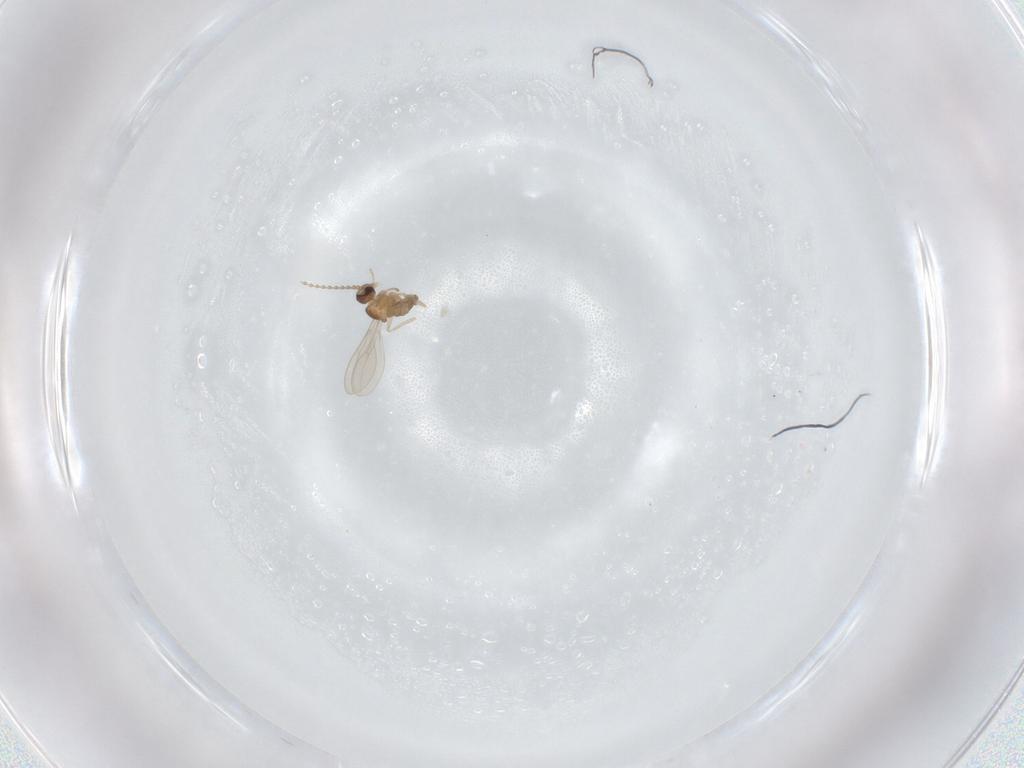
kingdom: Animalia
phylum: Arthropoda
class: Insecta
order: Diptera
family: Cecidomyiidae
